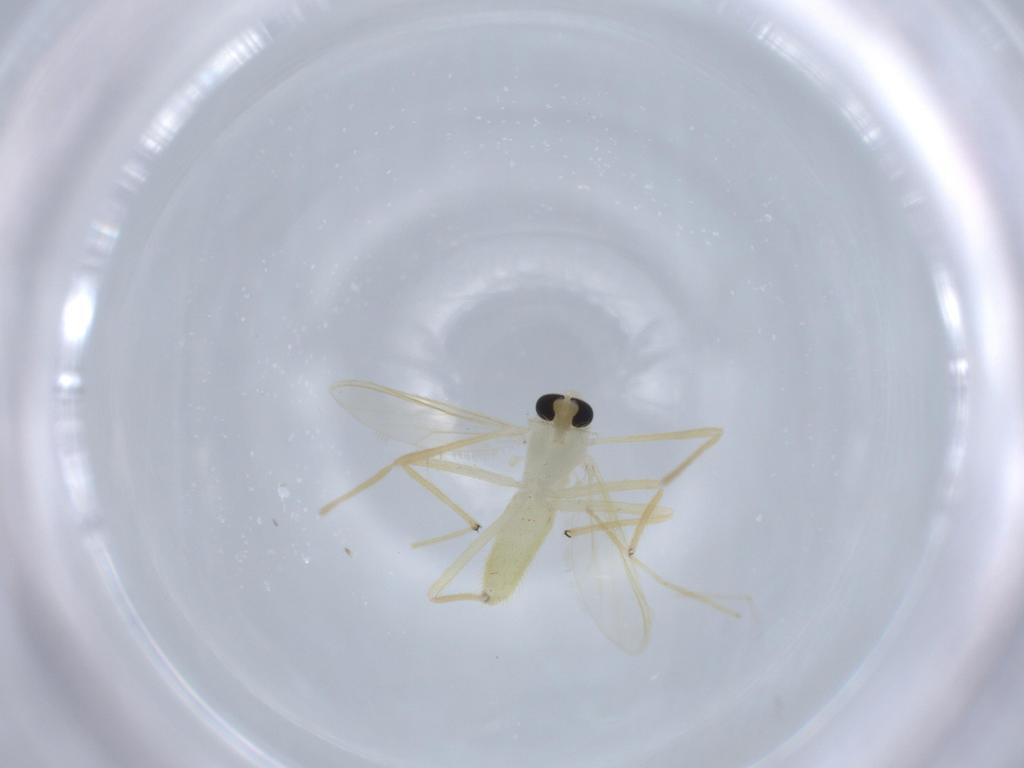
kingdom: Animalia
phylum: Arthropoda
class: Insecta
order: Diptera
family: Chironomidae
